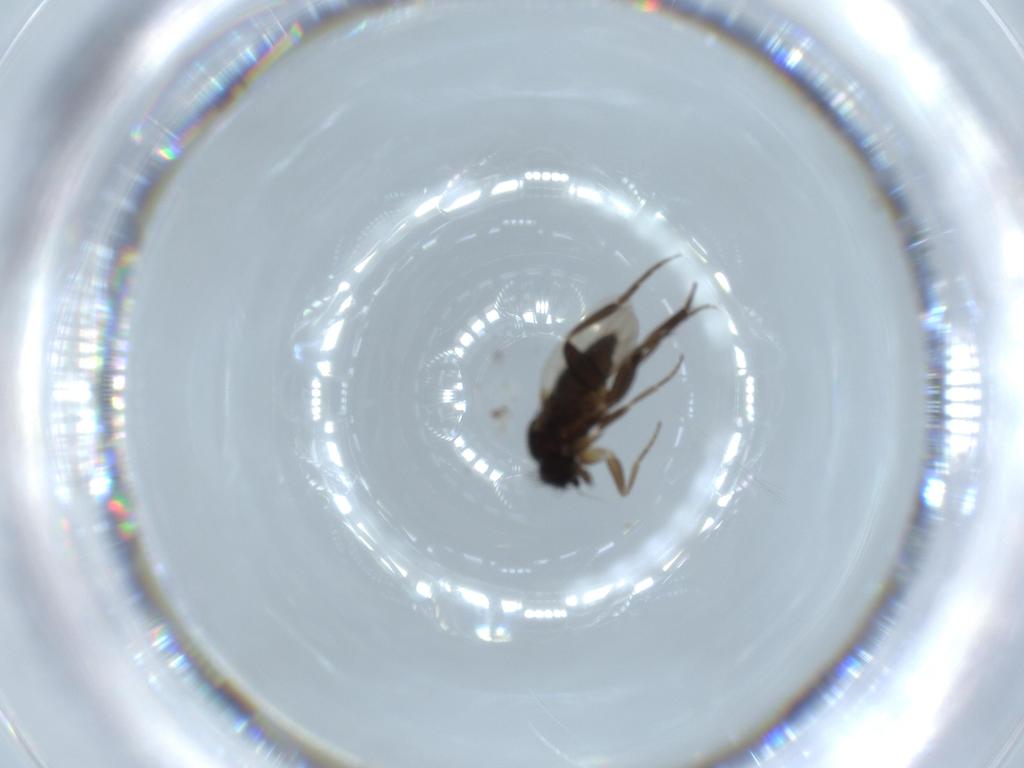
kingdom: Animalia
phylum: Arthropoda
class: Insecta
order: Diptera
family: Phoridae
